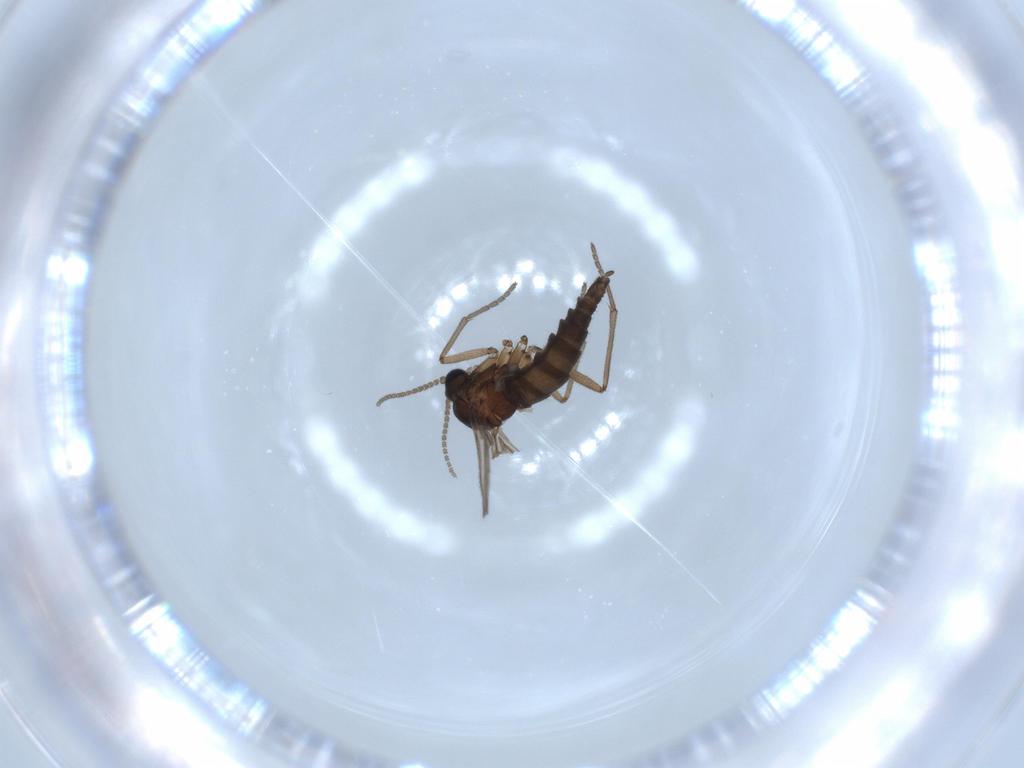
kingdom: Animalia
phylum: Arthropoda
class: Insecta
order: Diptera
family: Sciaridae
